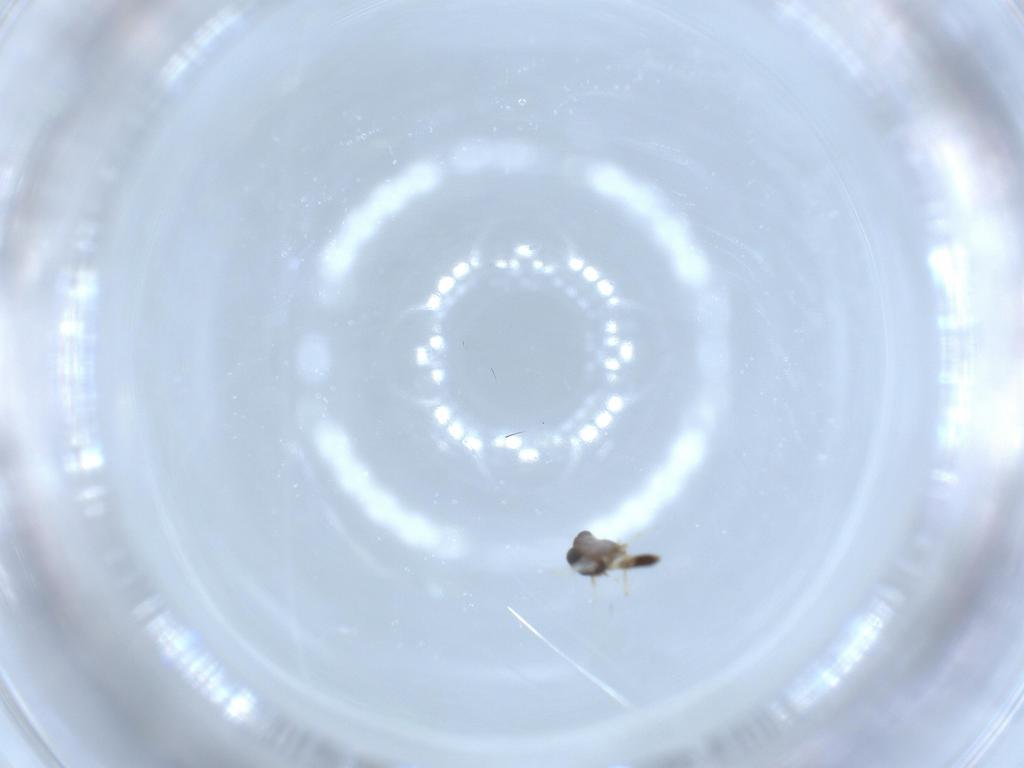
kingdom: Animalia
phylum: Arthropoda
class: Insecta
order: Diptera
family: Chironomidae
